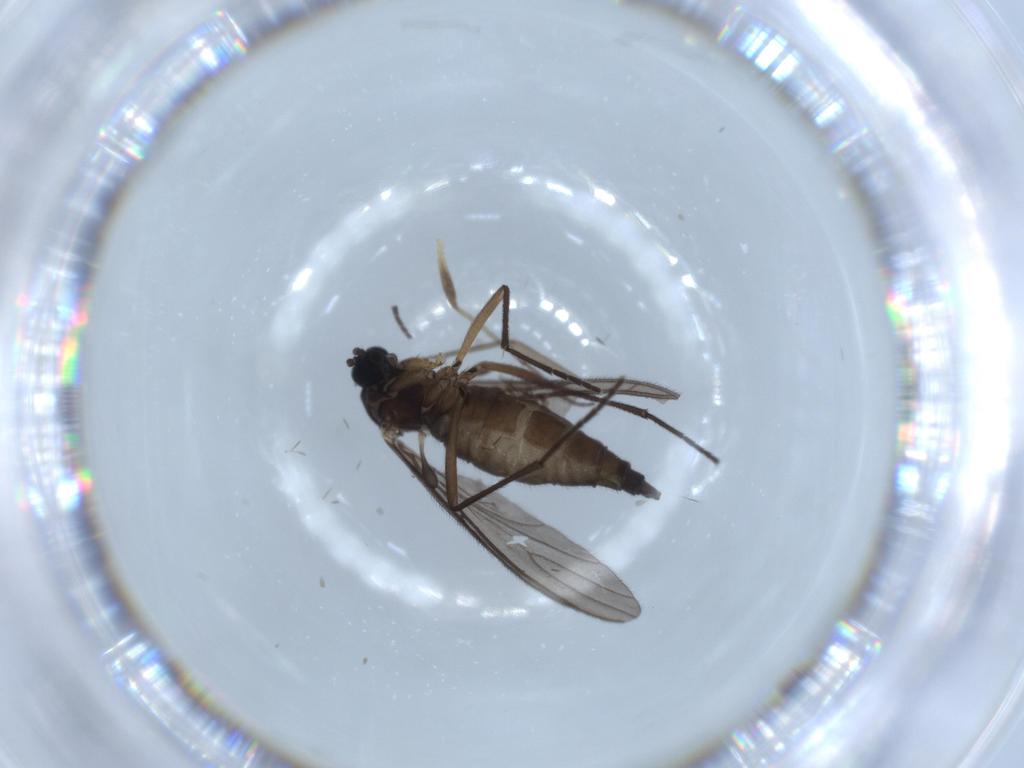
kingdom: Animalia
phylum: Arthropoda
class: Insecta
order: Diptera
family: Sciaridae
